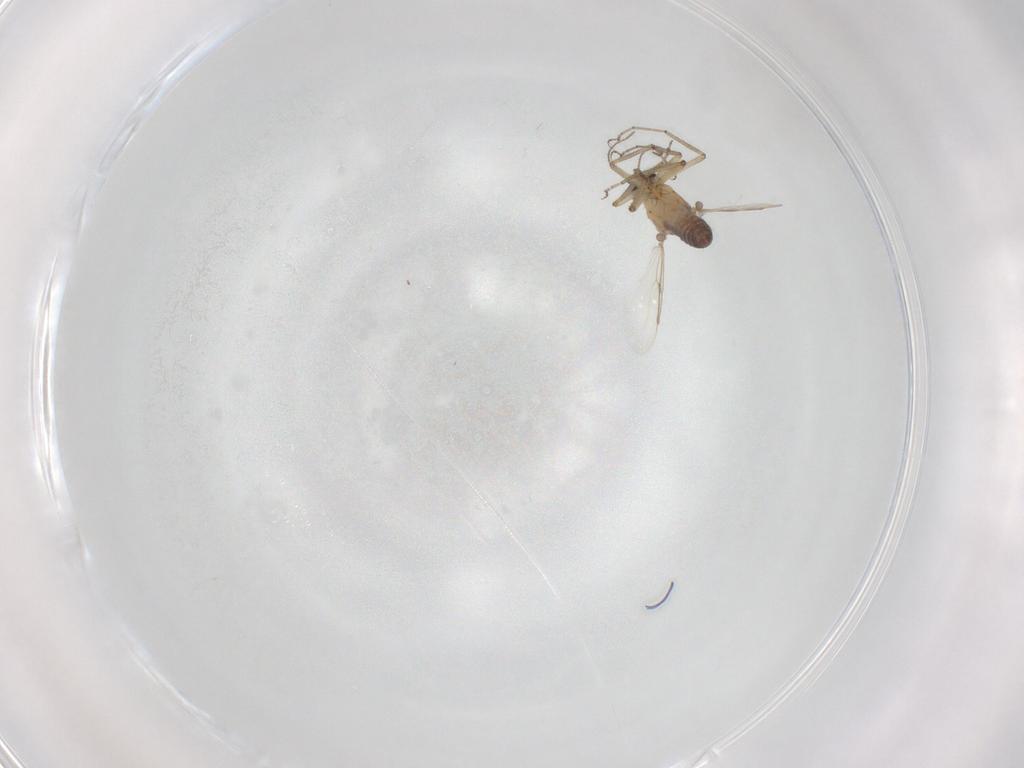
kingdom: Animalia
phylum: Arthropoda
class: Insecta
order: Diptera
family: Ceratopogonidae
